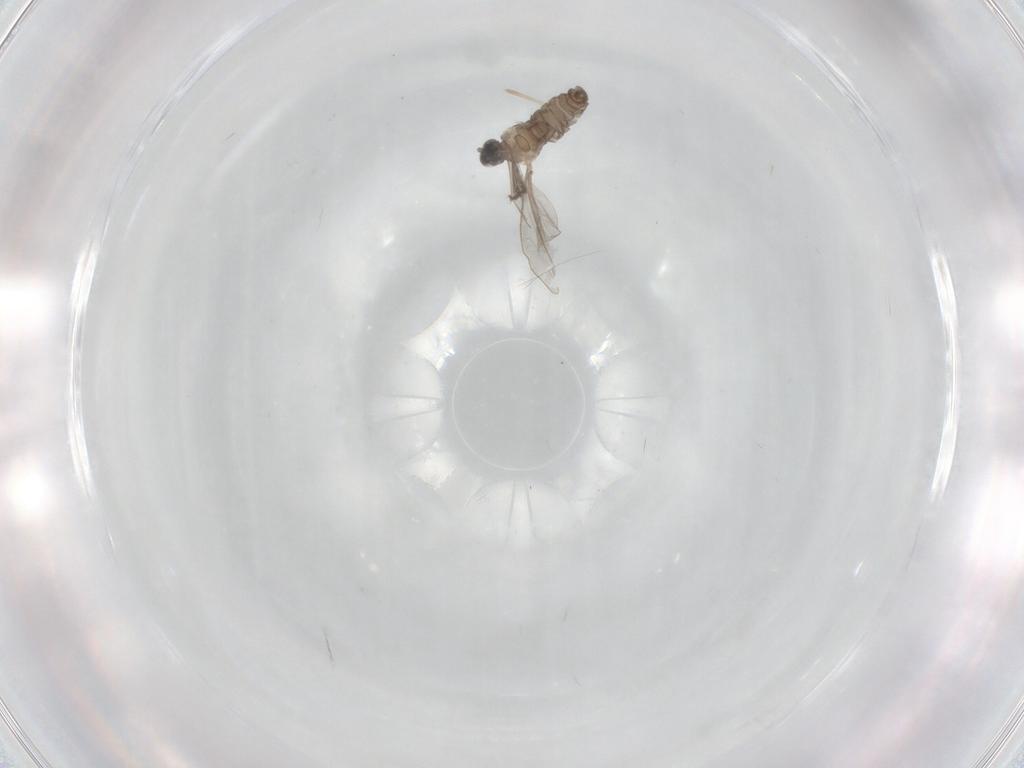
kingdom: Animalia
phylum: Arthropoda
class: Insecta
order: Diptera
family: Cecidomyiidae
